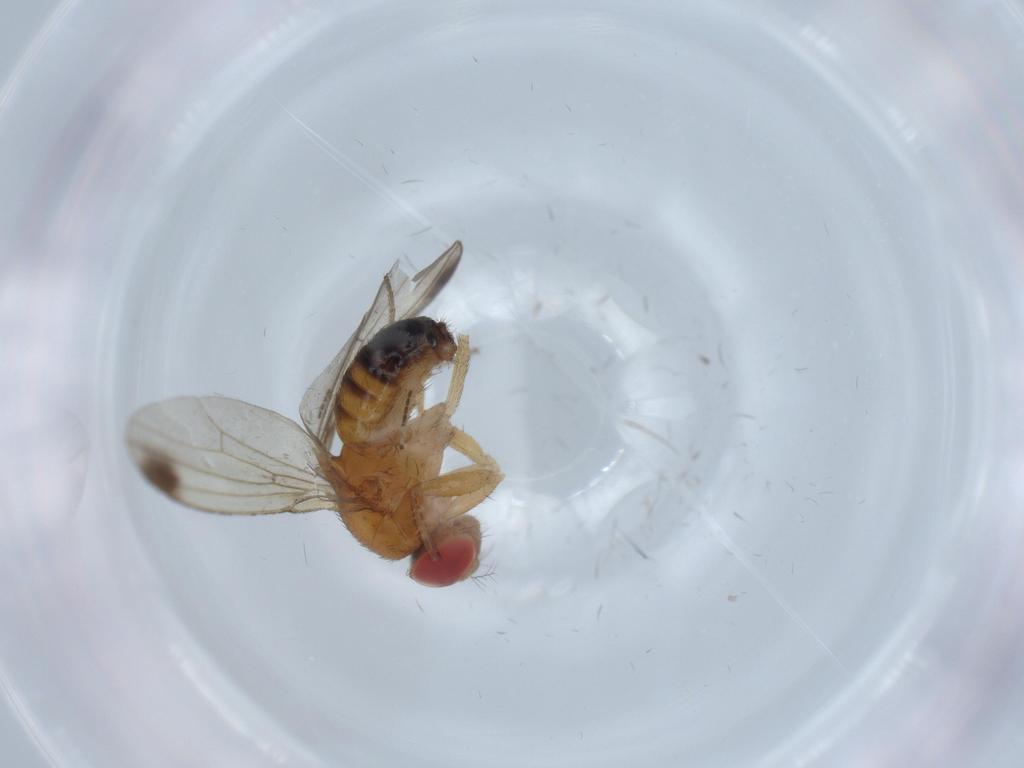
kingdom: Animalia
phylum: Arthropoda
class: Insecta
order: Diptera
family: Drosophilidae
